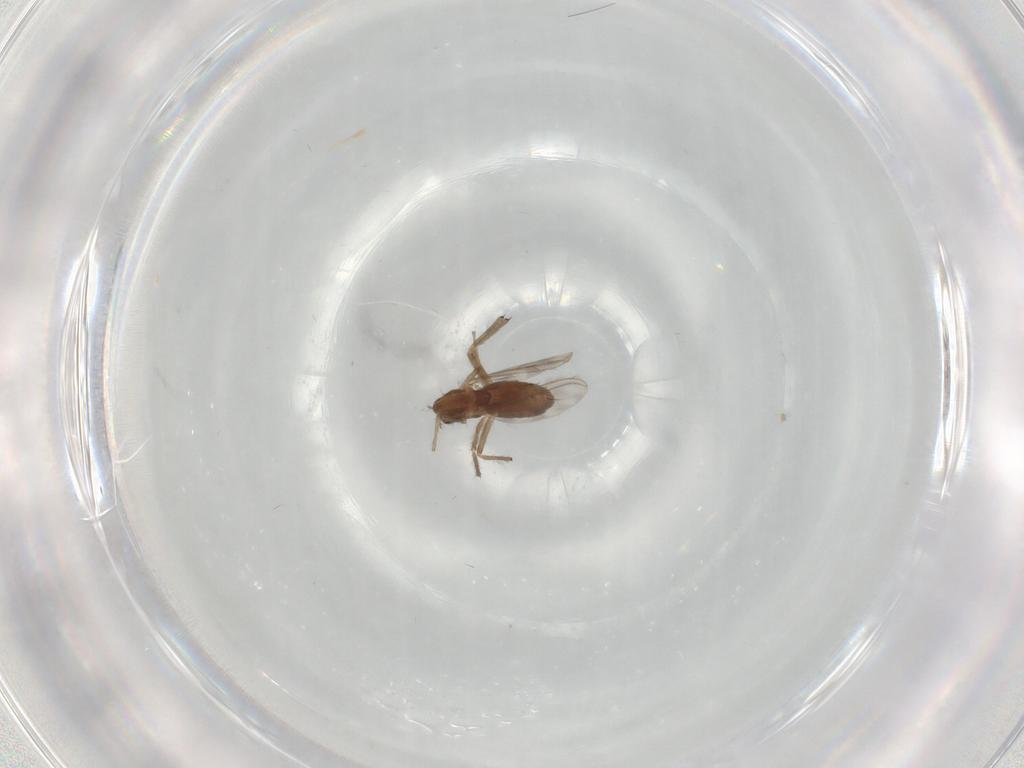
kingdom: Animalia
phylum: Arthropoda
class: Insecta
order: Diptera
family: Chironomidae
